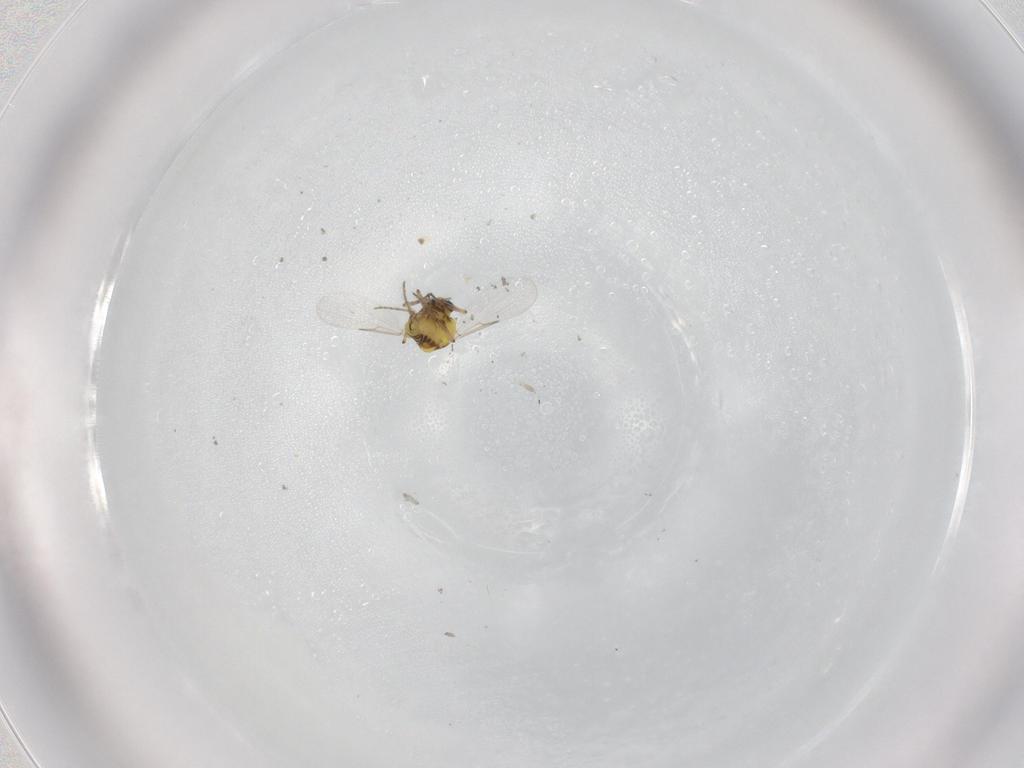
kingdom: Animalia
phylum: Arthropoda
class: Insecta
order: Diptera
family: Ceratopogonidae
